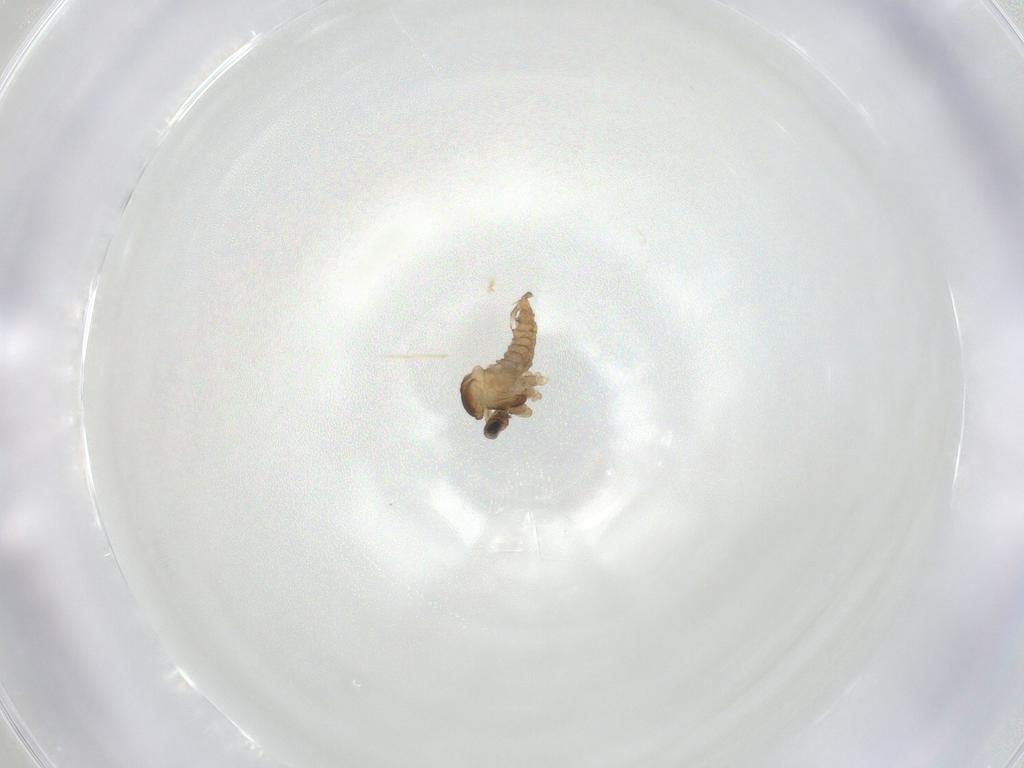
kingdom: Animalia
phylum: Arthropoda
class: Insecta
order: Diptera
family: Cecidomyiidae
